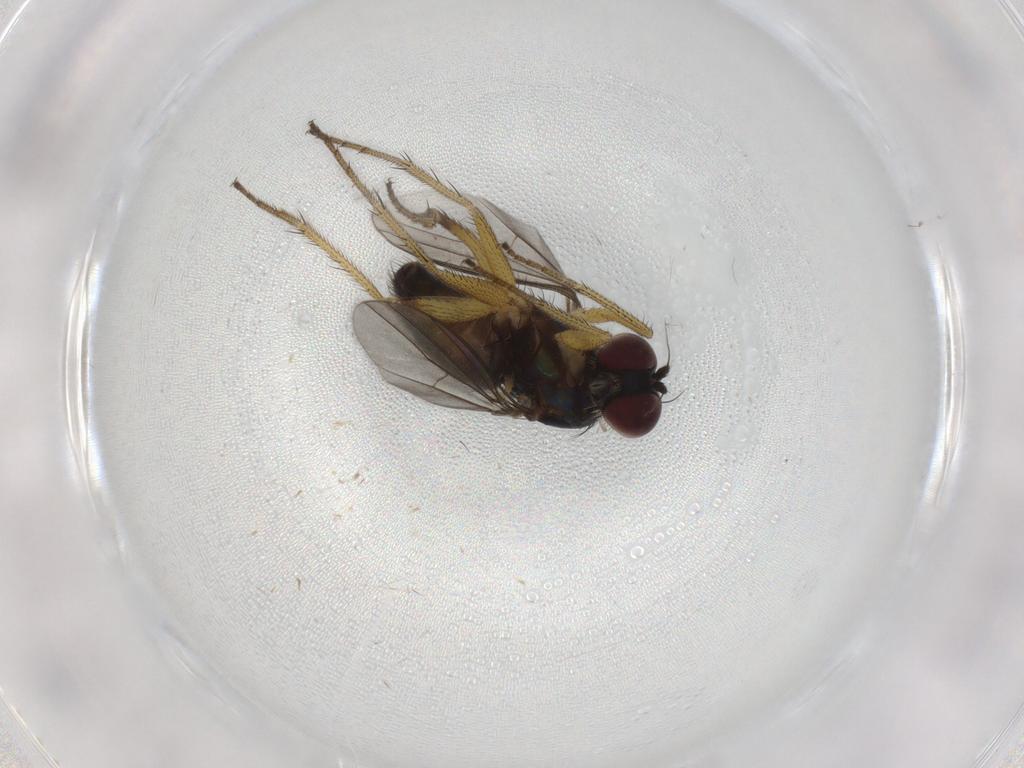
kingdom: Animalia
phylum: Arthropoda
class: Insecta
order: Diptera
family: Dolichopodidae
